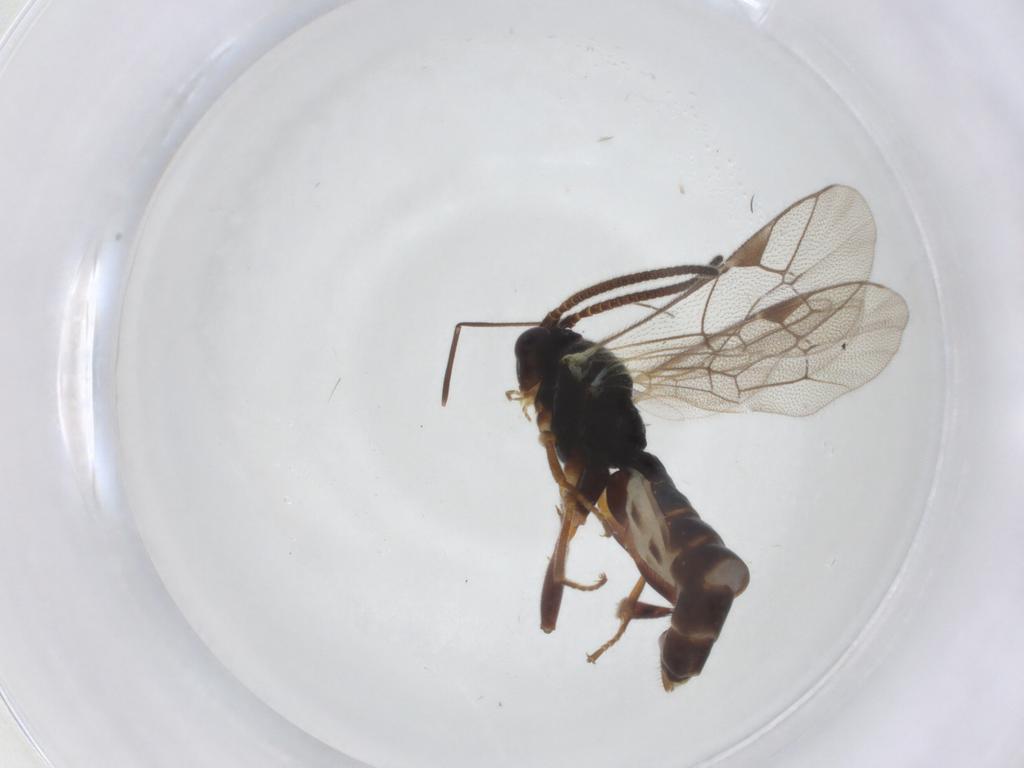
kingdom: Animalia
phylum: Arthropoda
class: Insecta
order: Hymenoptera
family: Ichneumonidae
